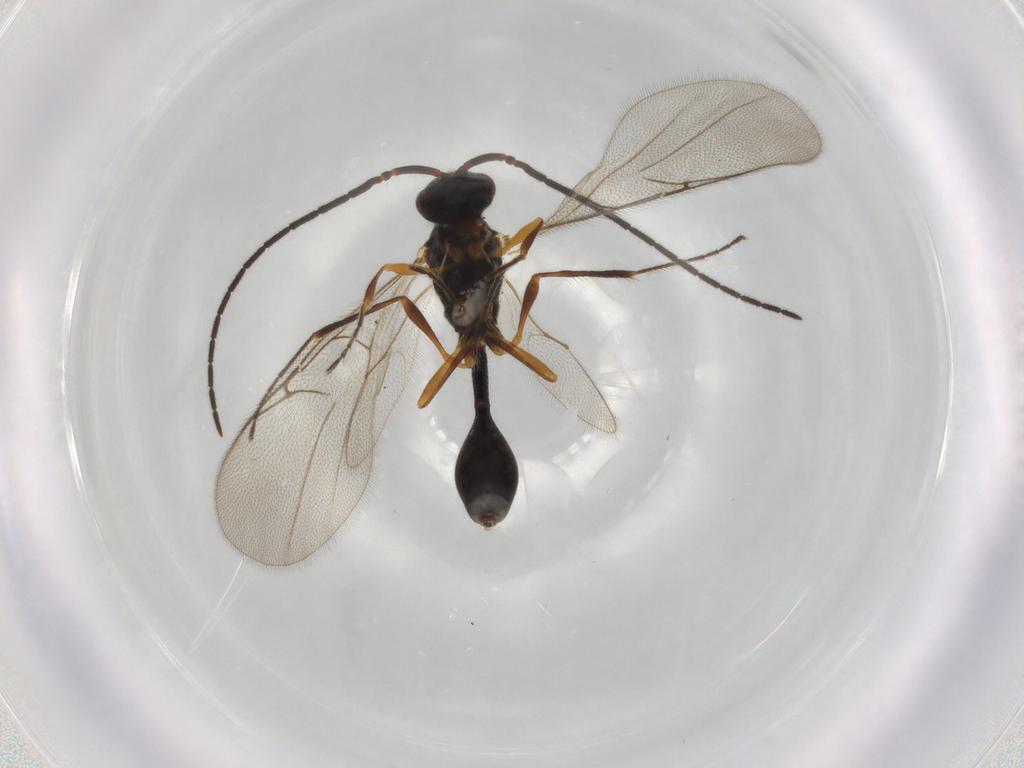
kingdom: Animalia
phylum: Arthropoda
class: Insecta
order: Hymenoptera
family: Diapriidae
